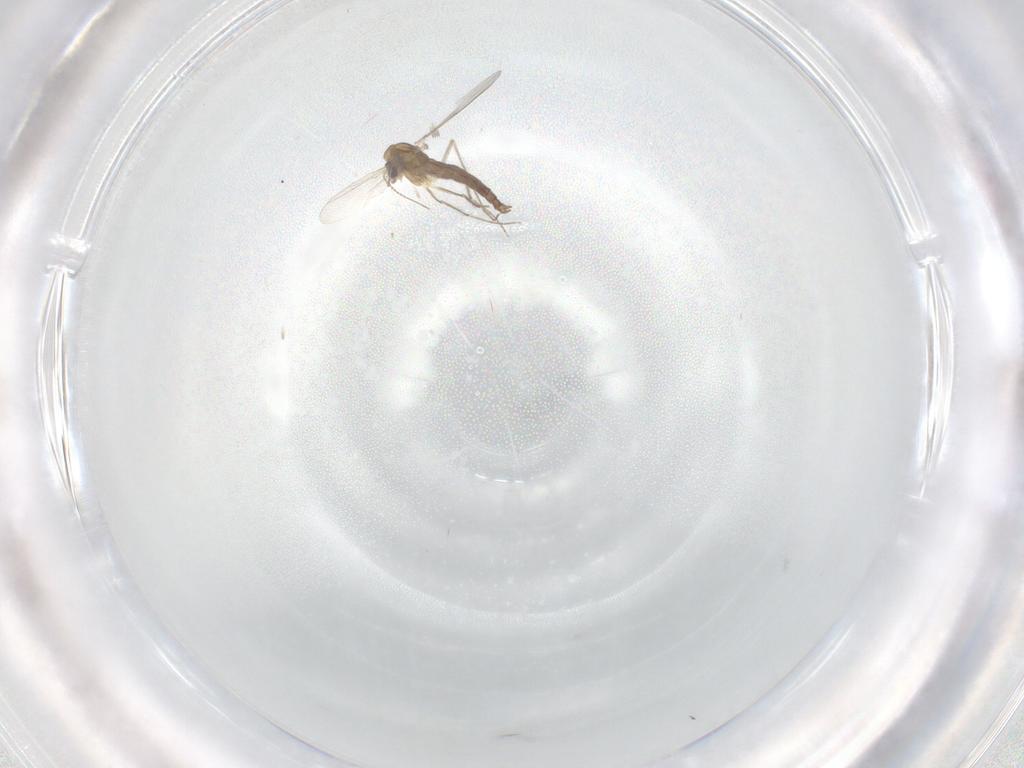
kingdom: Animalia
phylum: Arthropoda
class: Insecta
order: Diptera
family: Chironomidae
